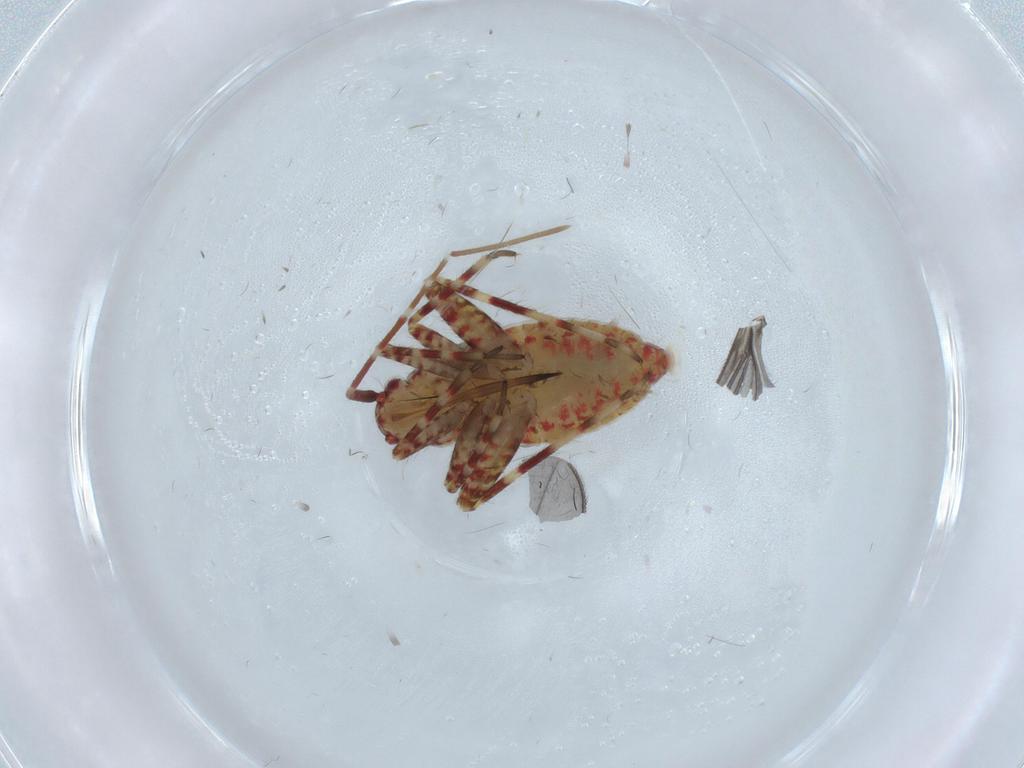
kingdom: Animalia
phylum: Arthropoda
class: Insecta
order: Hemiptera
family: Miridae
